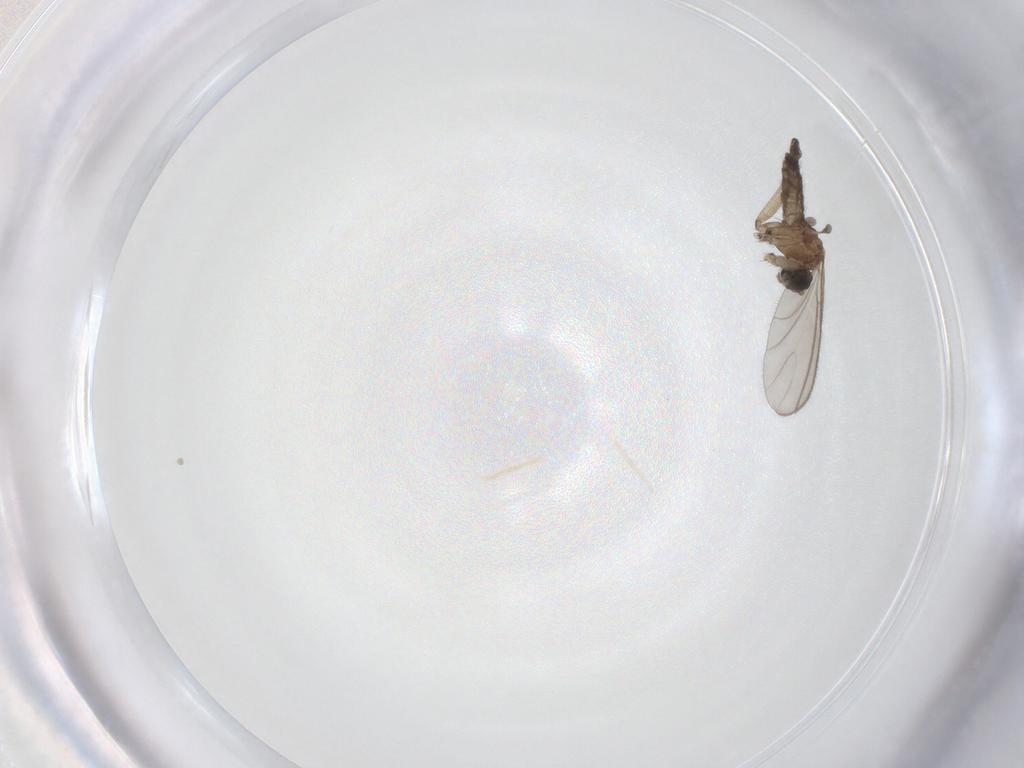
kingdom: Animalia
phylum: Arthropoda
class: Insecta
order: Diptera
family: Sciaridae
